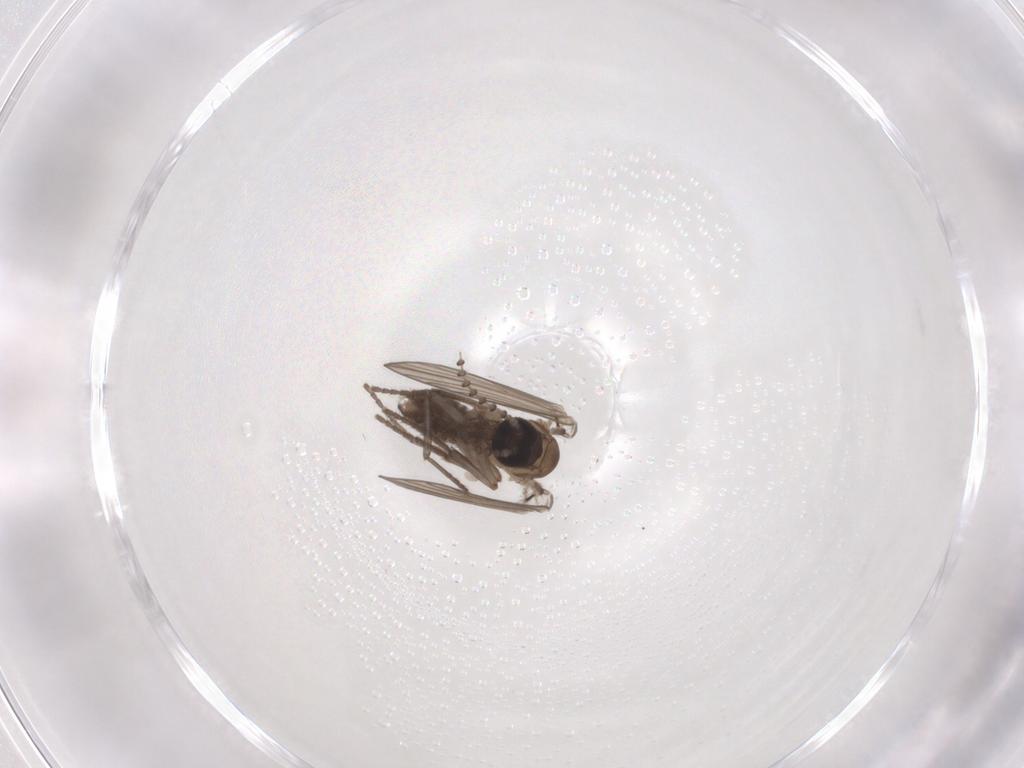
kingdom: Animalia
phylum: Arthropoda
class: Insecta
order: Diptera
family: Psychodidae
